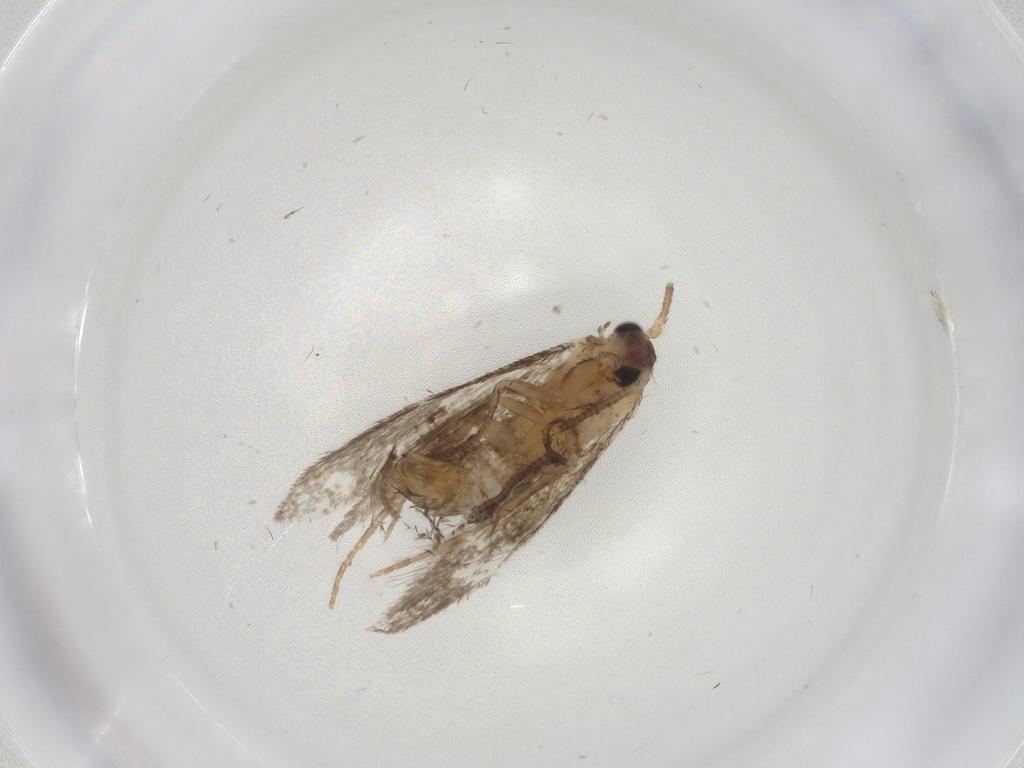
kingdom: Animalia
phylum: Arthropoda
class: Insecta
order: Lepidoptera
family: Tineidae
